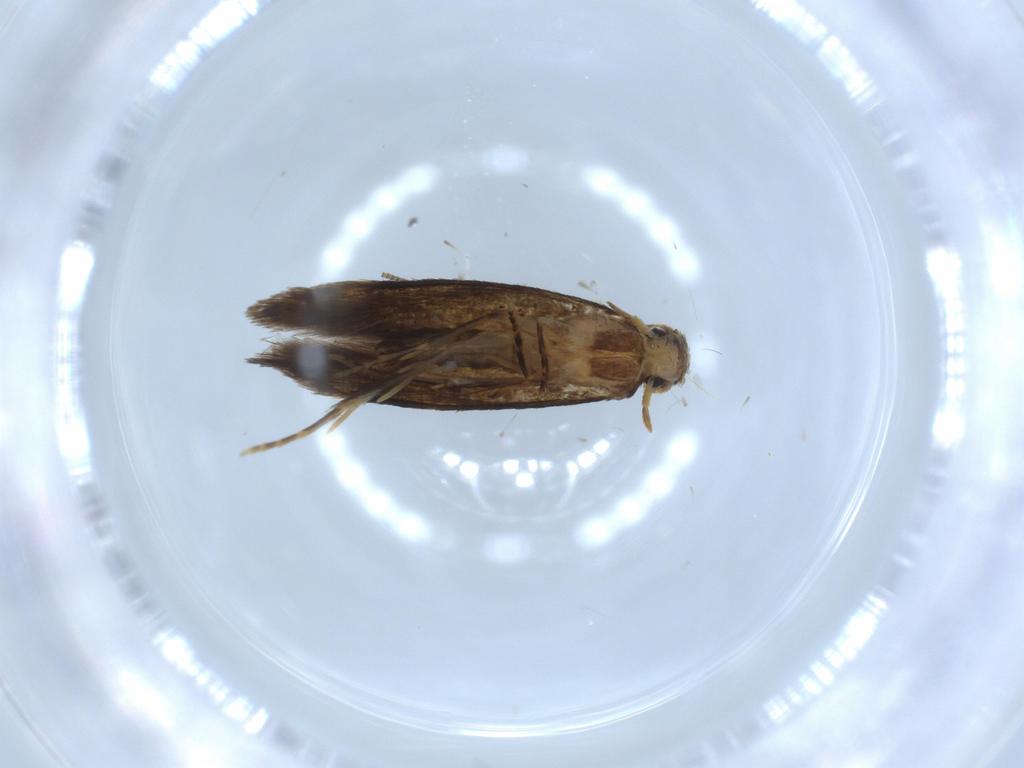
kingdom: Animalia
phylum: Arthropoda
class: Insecta
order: Lepidoptera
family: Tineidae
